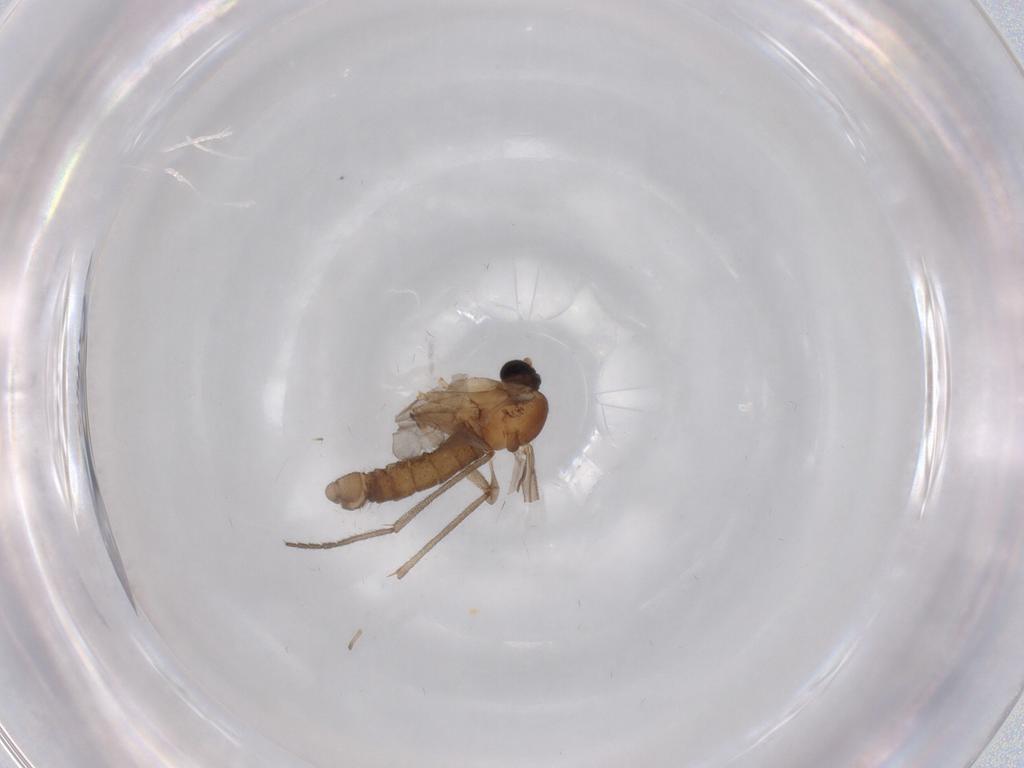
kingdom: Animalia
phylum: Arthropoda
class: Insecta
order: Diptera
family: Sciaridae
